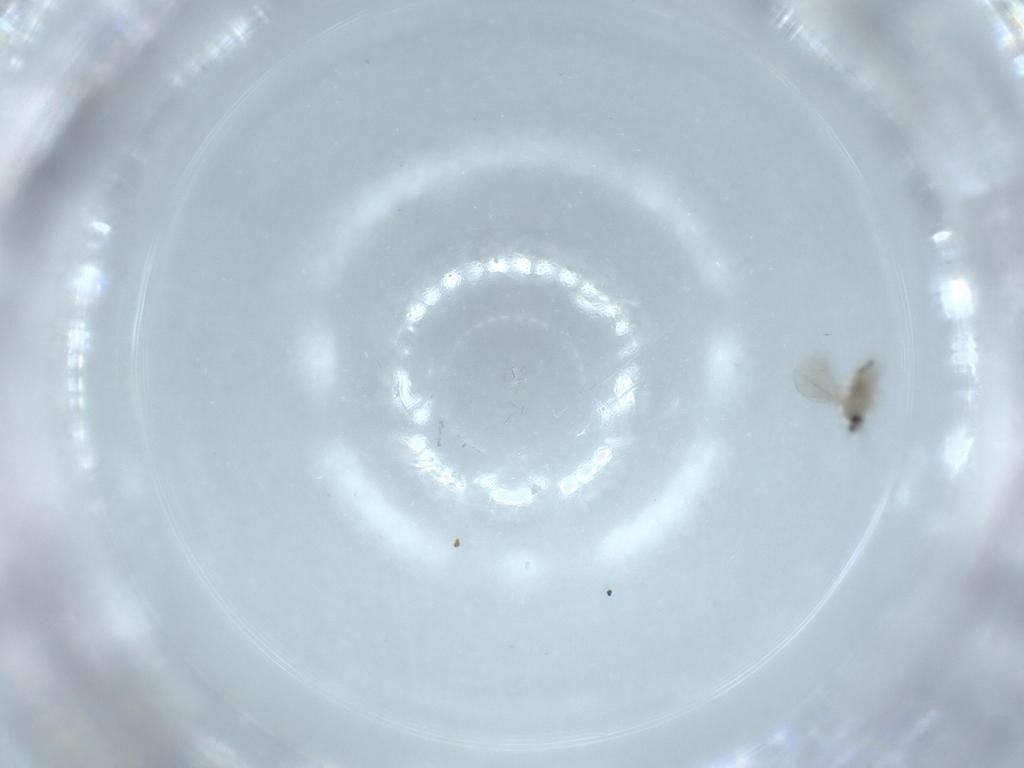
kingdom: Animalia
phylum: Arthropoda
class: Insecta
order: Diptera
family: Cecidomyiidae
